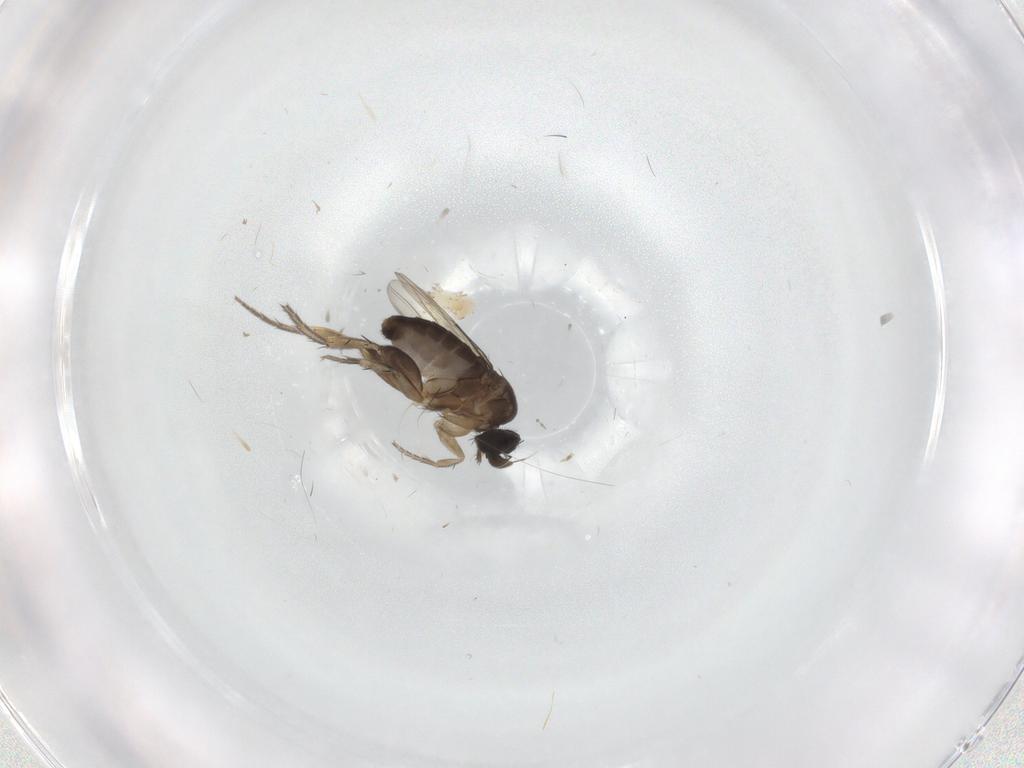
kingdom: Animalia
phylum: Arthropoda
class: Insecta
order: Diptera
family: Phoridae
